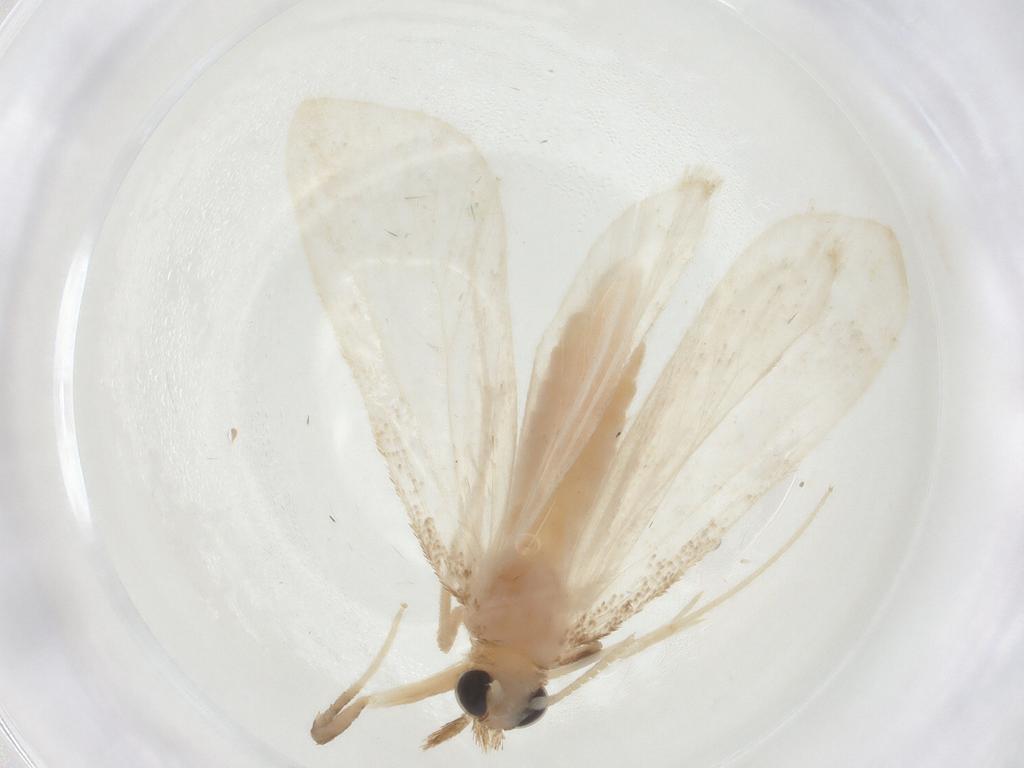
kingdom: Animalia
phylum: Arthropoda
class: Insecta
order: Lepidoptera
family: Crambidae
